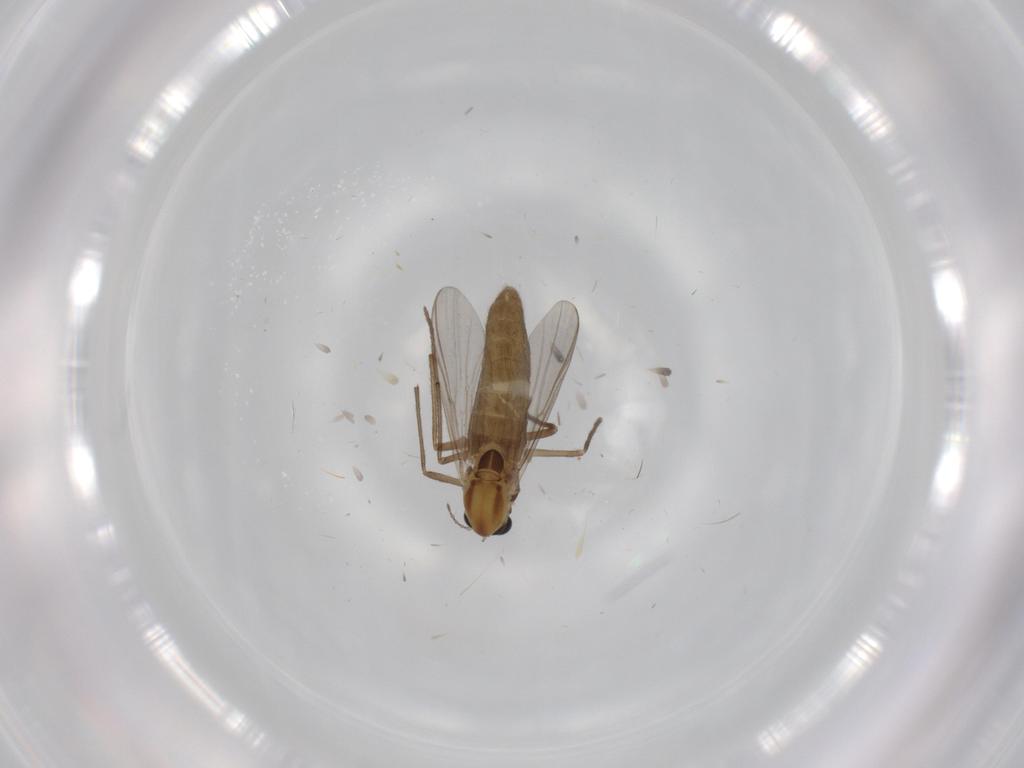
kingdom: Animalia
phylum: Arthropoda
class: Insecta
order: Diptera
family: Chironomidae
